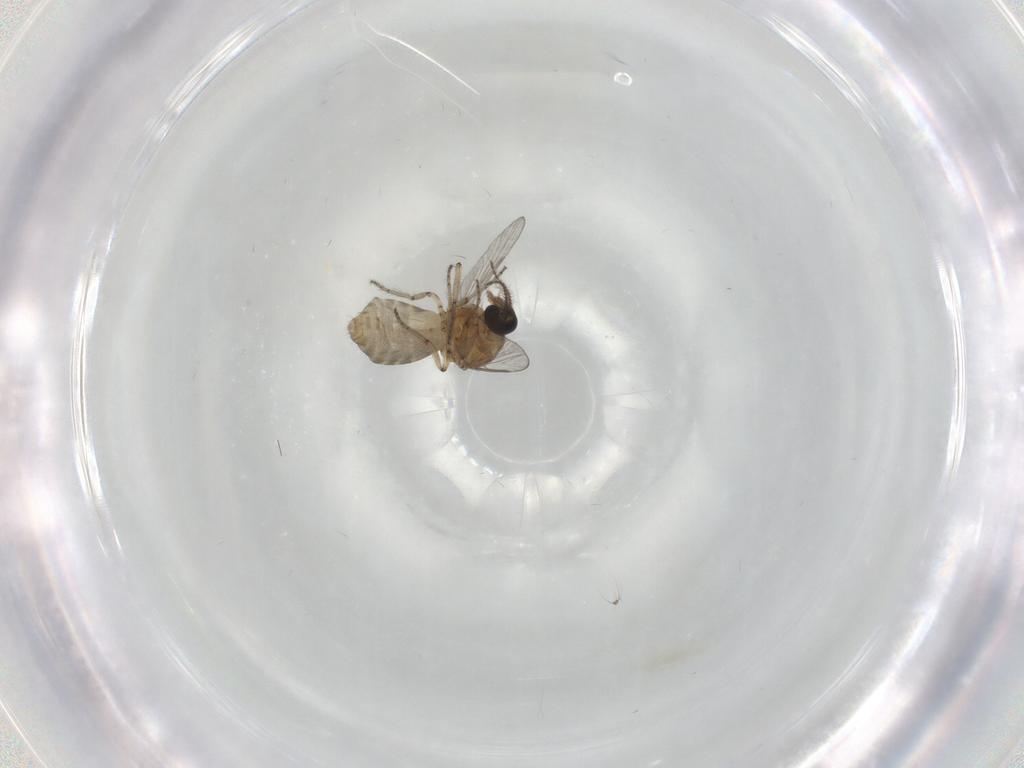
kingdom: Animalia
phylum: Arthropoda
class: Insecta
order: Diptera
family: Ceratopogonidae
